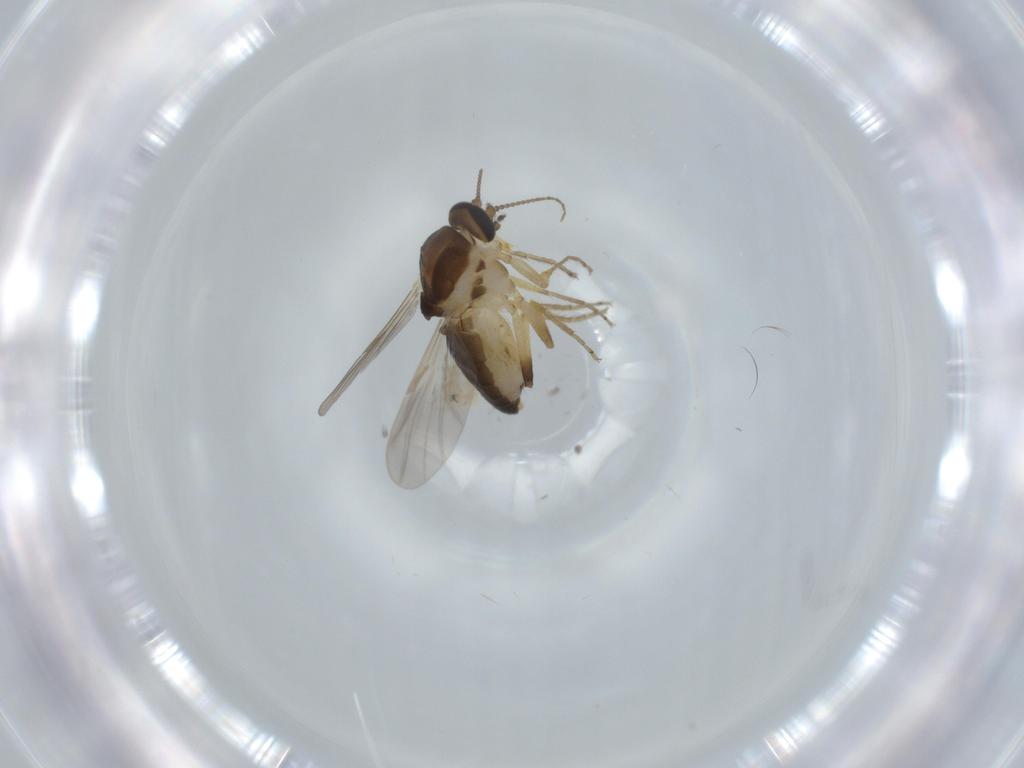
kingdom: Animalia
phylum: Arthropoda
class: Insecta
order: Diptera
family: Ceratopogonidae
